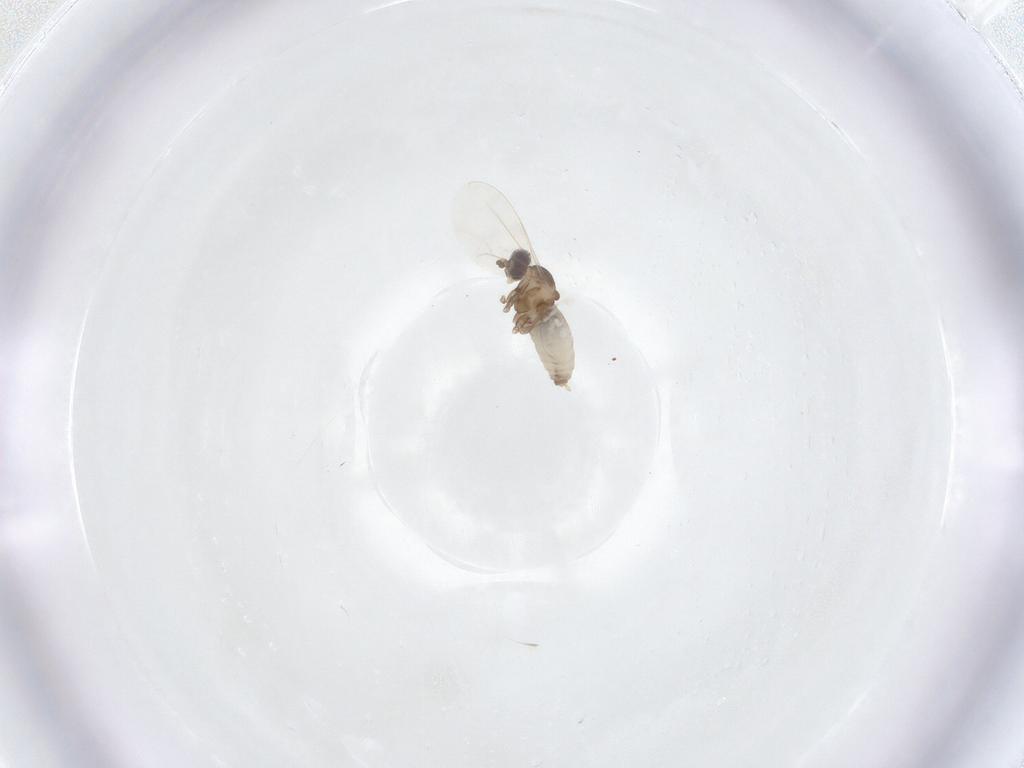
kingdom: Animalia
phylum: Arthropoda
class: Insecta
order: Diptera
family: Cecidomyiidae
